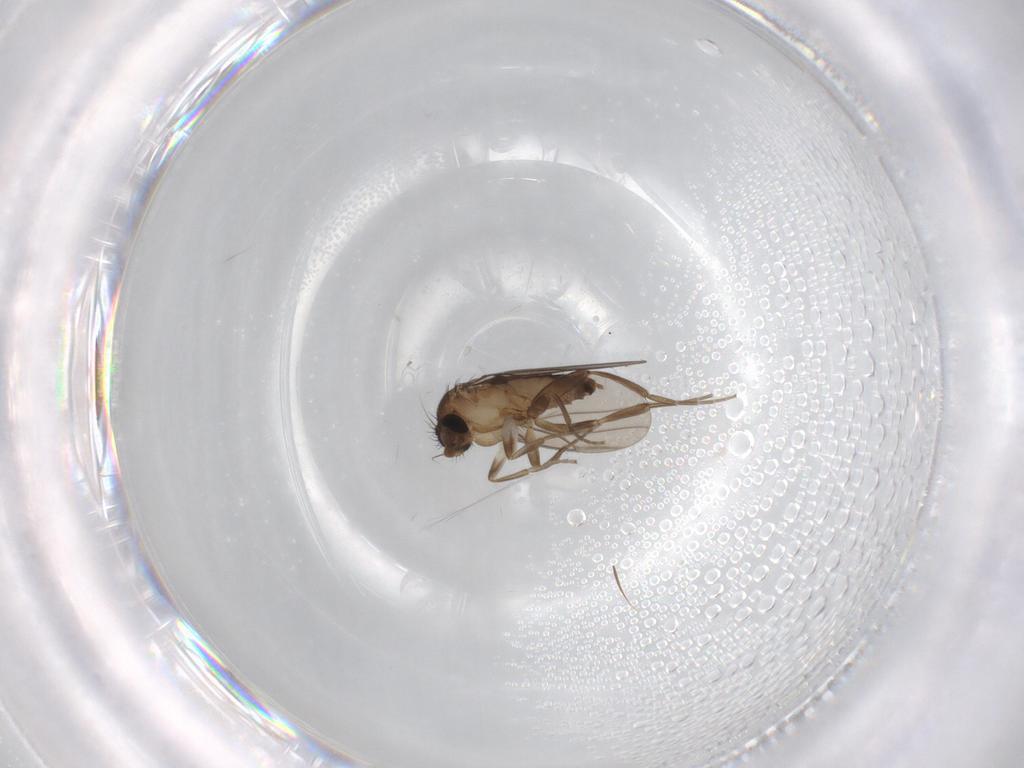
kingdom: Animalia
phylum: Arthropoda
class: Insecta
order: Diptera
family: Cecidomyiidae
